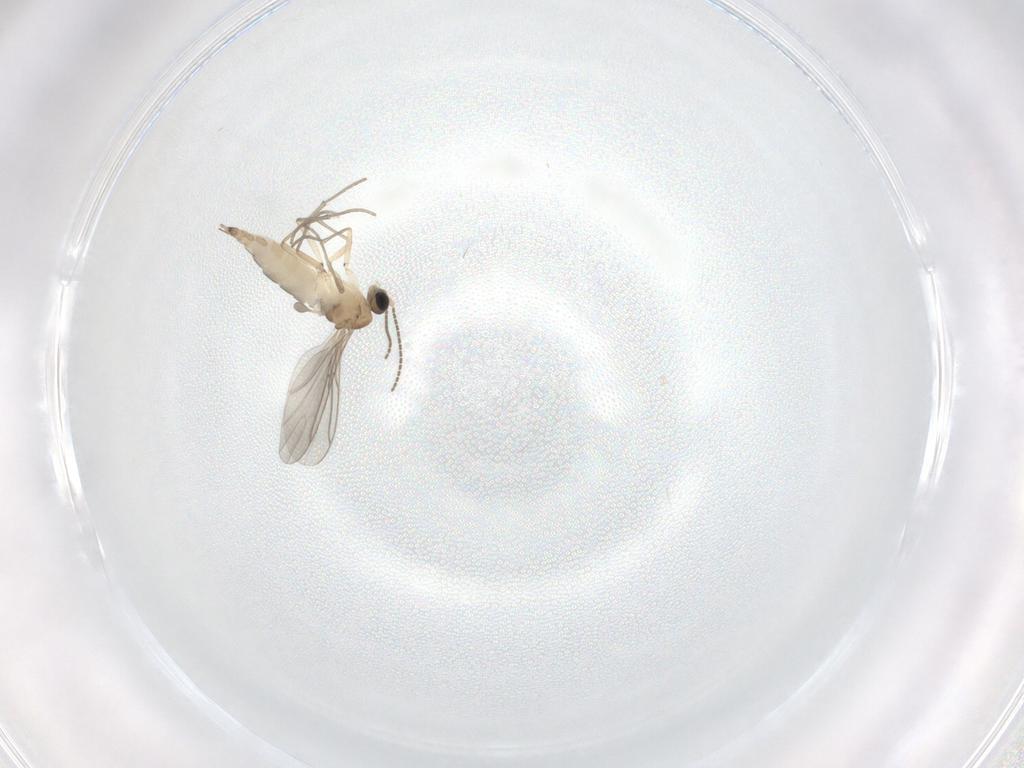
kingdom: Animalia
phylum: Arthropoda
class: Insecta
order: Diptera
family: Sciaridae
